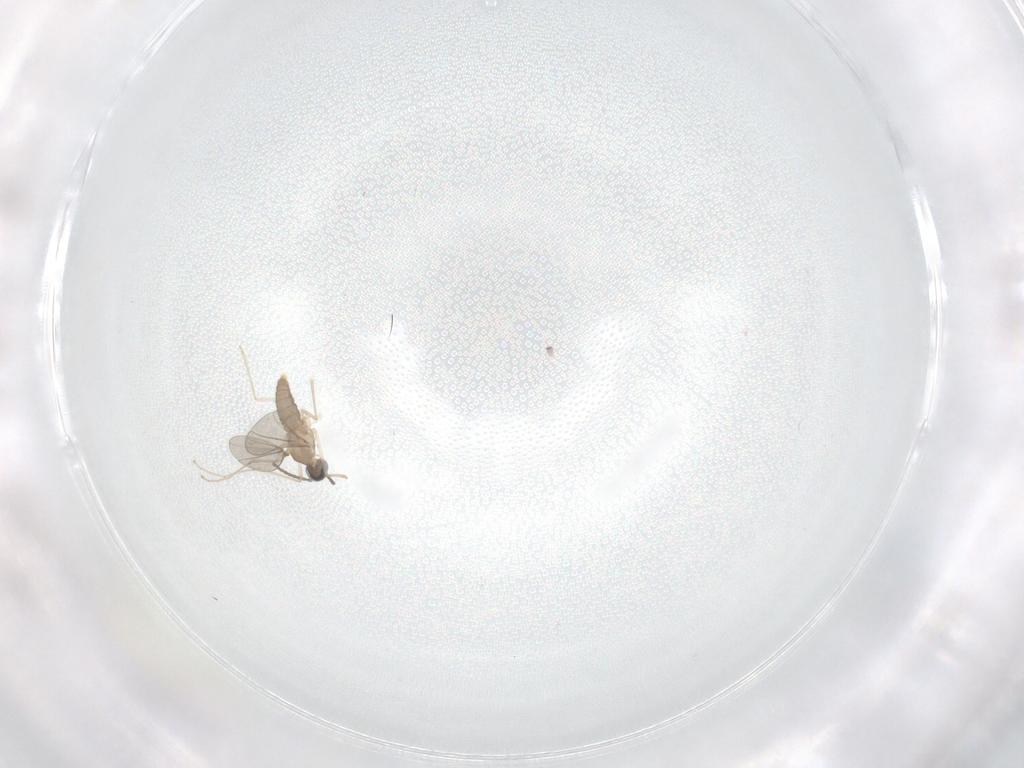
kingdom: Animalia
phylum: Arthropoda
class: Insecta
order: Diptera
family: Cecidomyiidae
